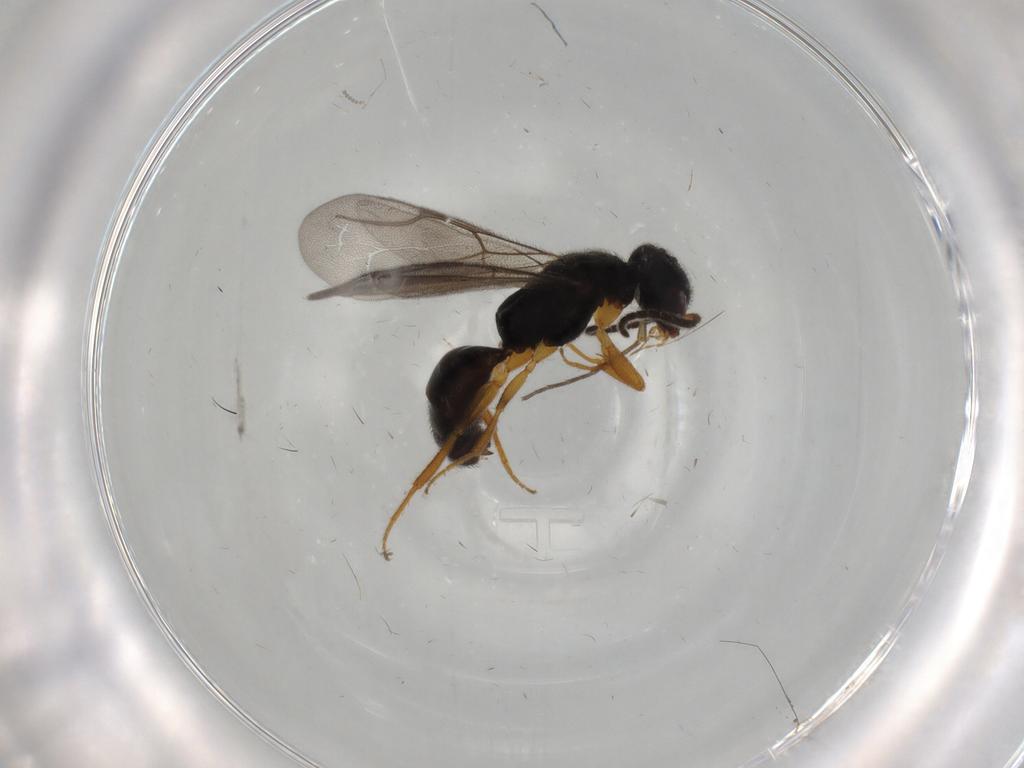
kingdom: Animalia
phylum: Arthropoda
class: Insecta
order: Hymenoptera
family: Bethylidae
